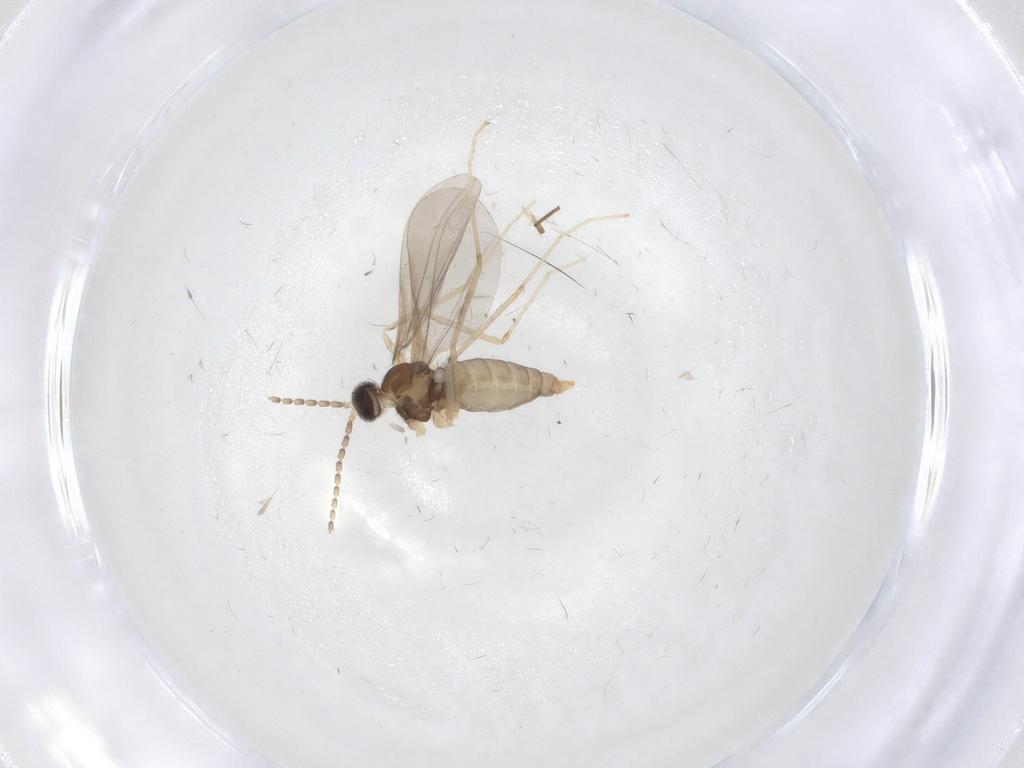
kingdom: Animalia
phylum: Arthropoda
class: Insecta
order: Diptera
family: Cecidomyiidae
